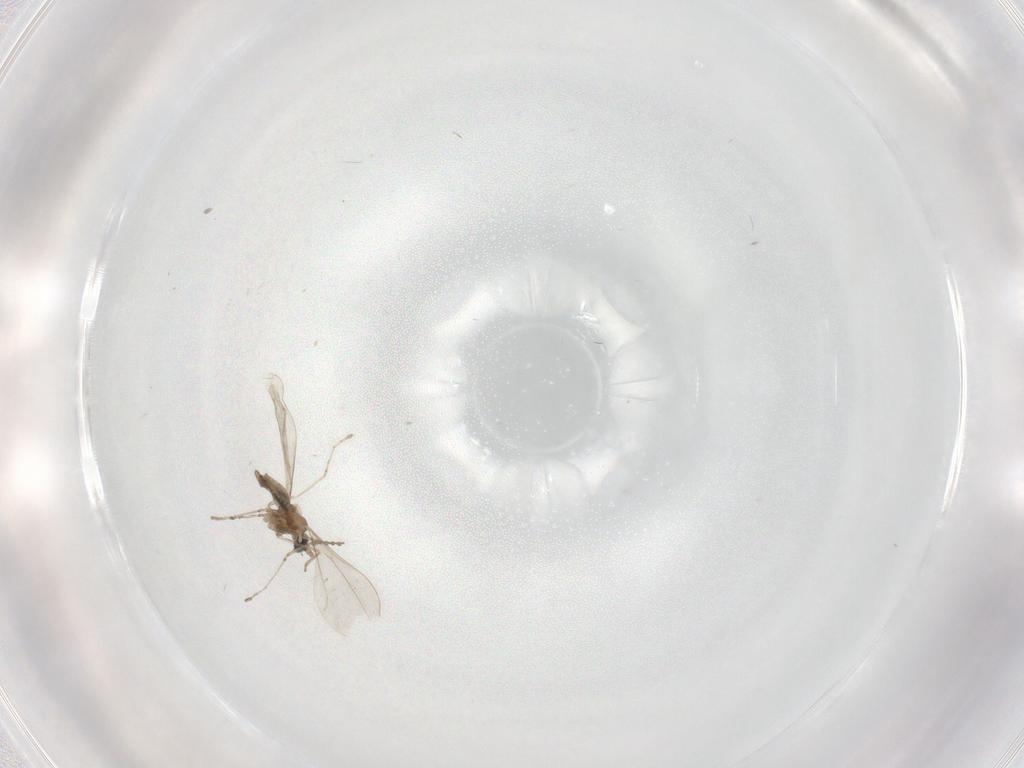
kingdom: Animalia
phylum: Arthropoda
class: Insecta
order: Diptera
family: Cecidomyiidae
